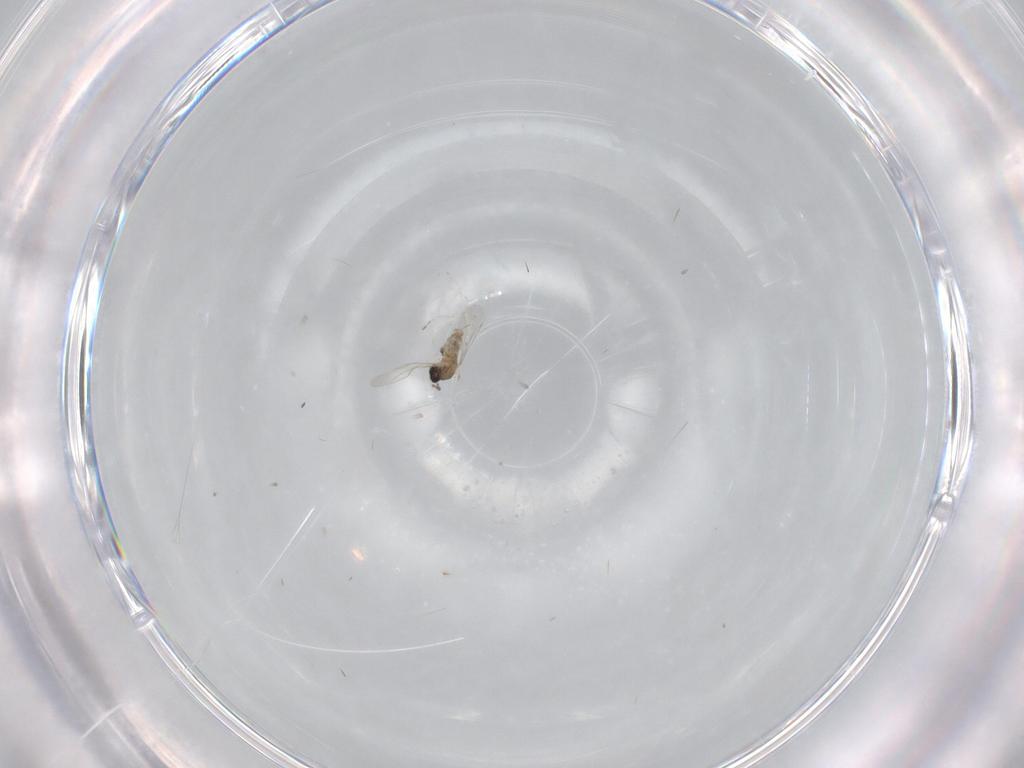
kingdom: Animalia
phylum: Arthropoda
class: Insecta
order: Diptera
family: Cecidomyiidae
